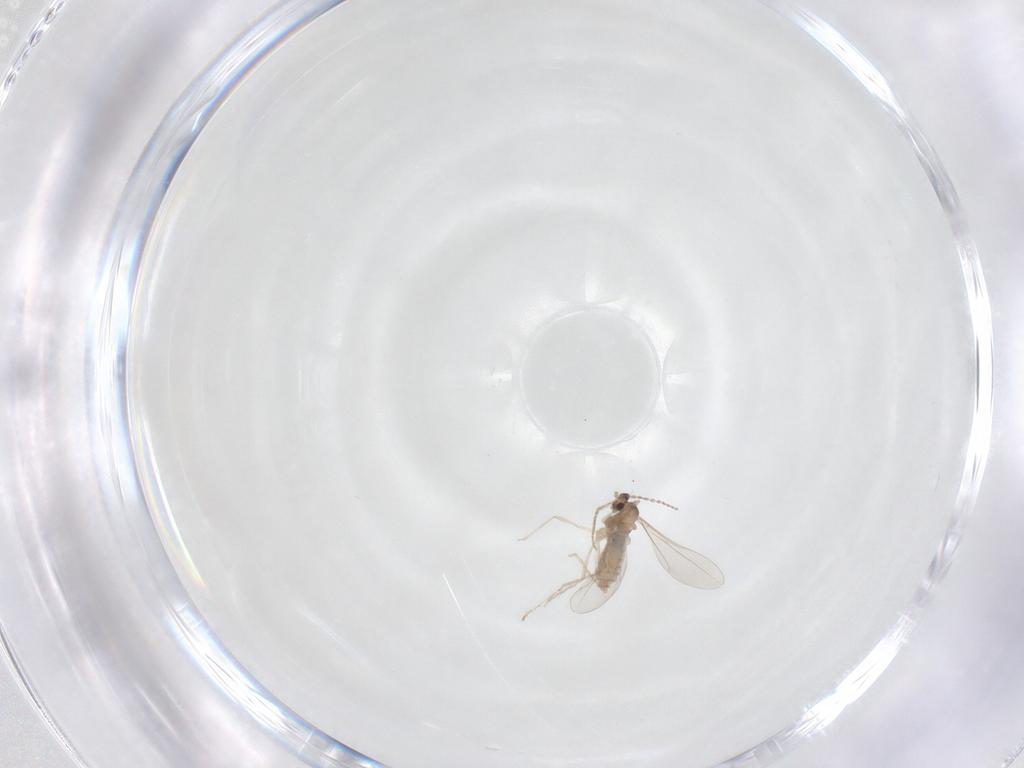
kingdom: Animalia
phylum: Arthropoda
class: Insecta
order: Diptera
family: Cecidomyiidae
